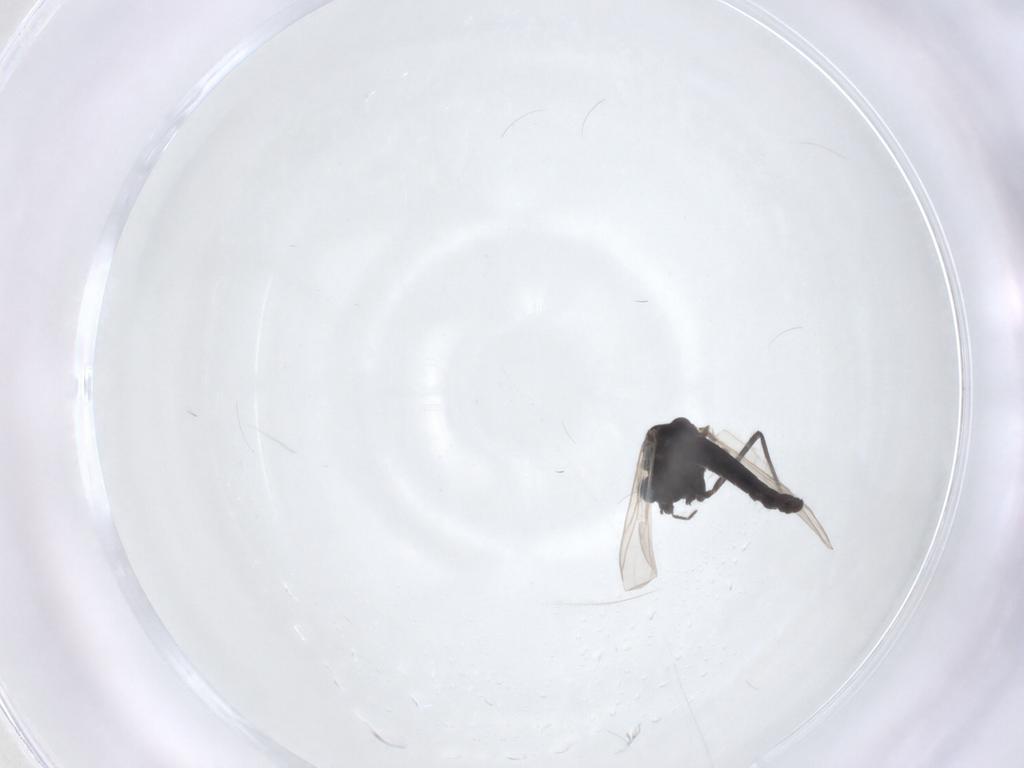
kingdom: Animalia
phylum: Arthropoda
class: Insecta
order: Diptera
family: Chironomidae
